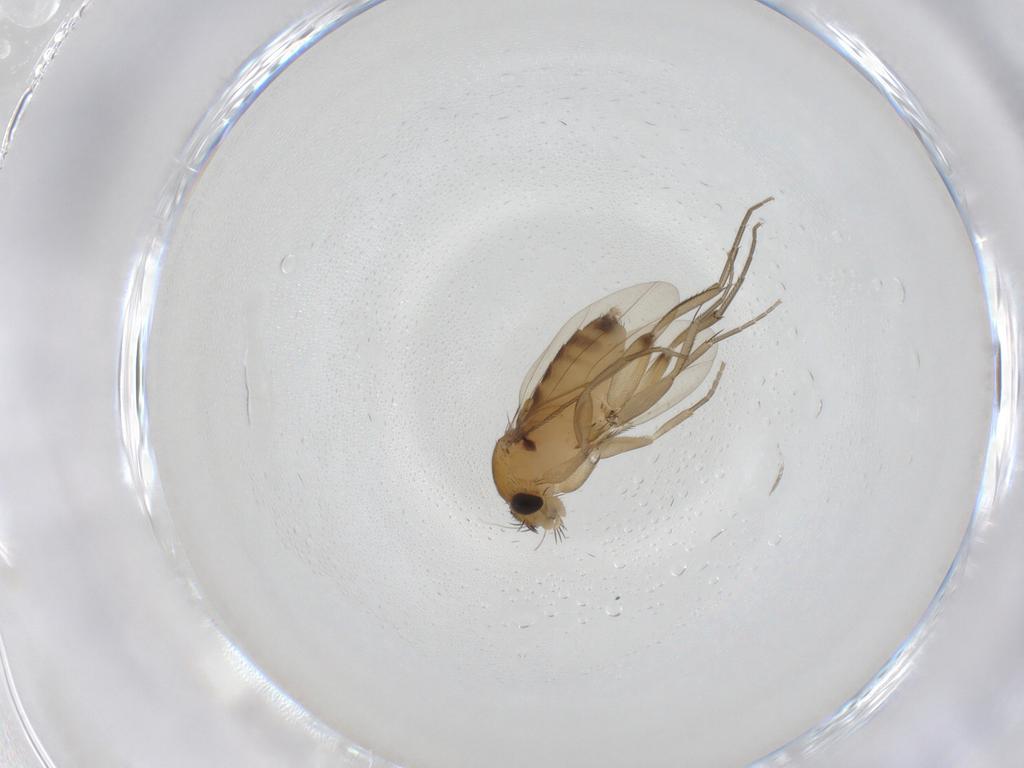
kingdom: Animalia
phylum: Arthropoda
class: Insecta
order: Diptera
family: Phoridae
